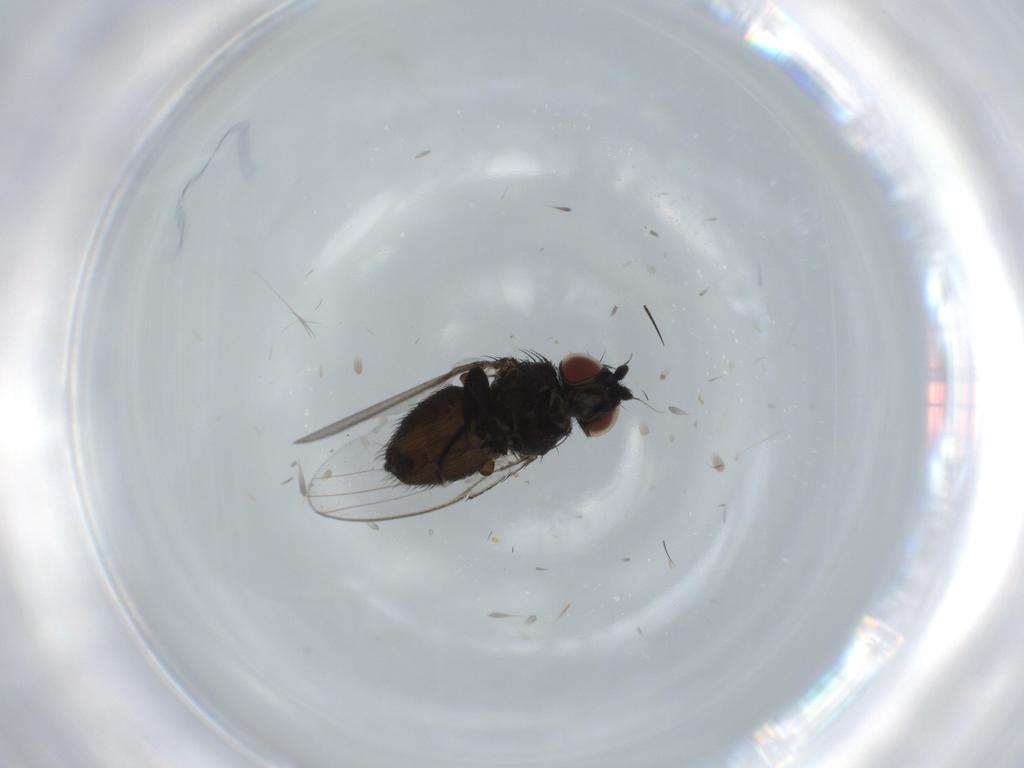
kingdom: Animalia
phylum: Arthropoda
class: Insecta
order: Diptera
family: Milichiidae
